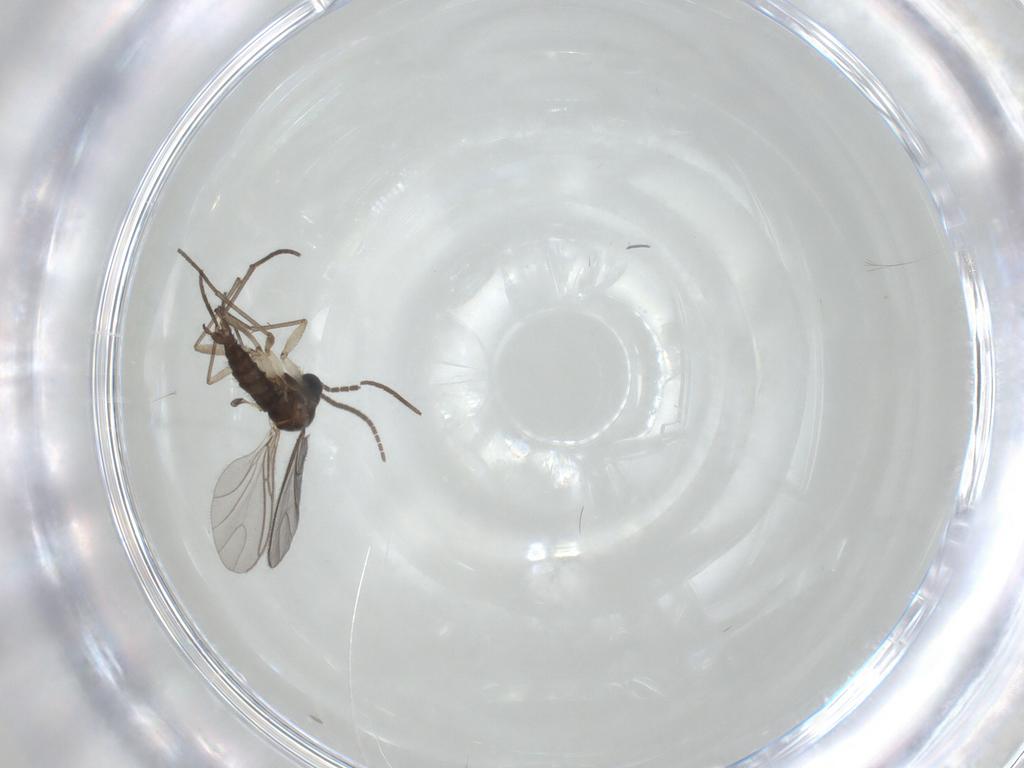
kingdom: Animalia
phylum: Arthropoda
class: Insecta
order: Diptera
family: Sciaridae
